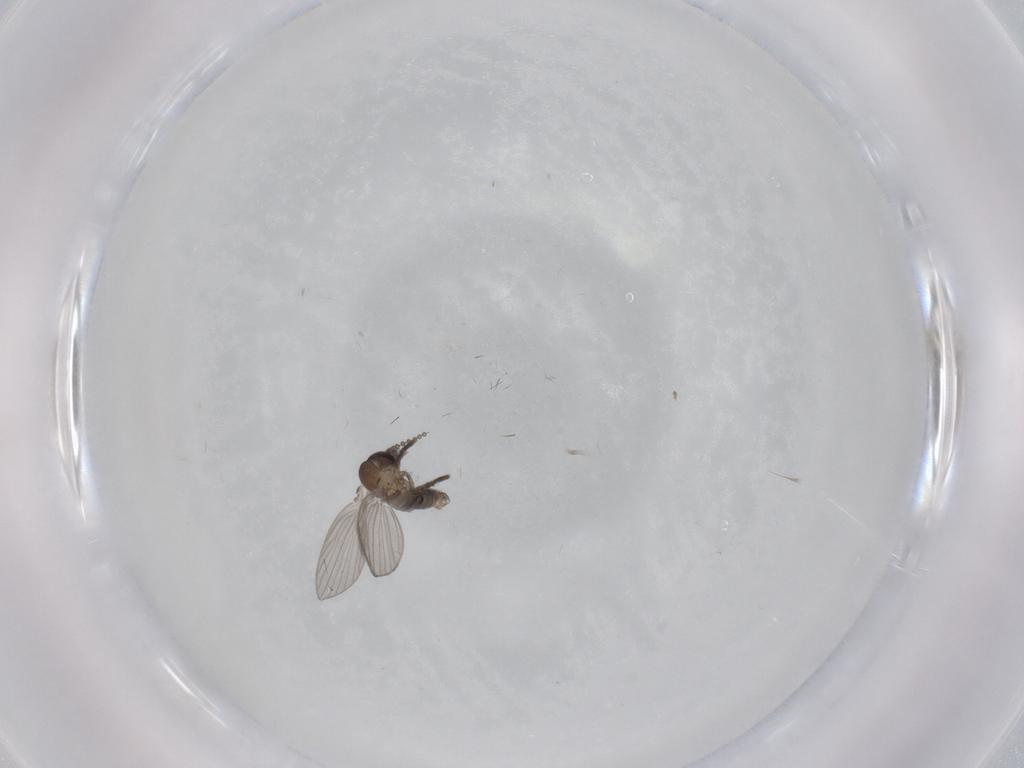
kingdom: Animalia
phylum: Arthropoda
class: Insecta
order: Diptera
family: Psychodidae
